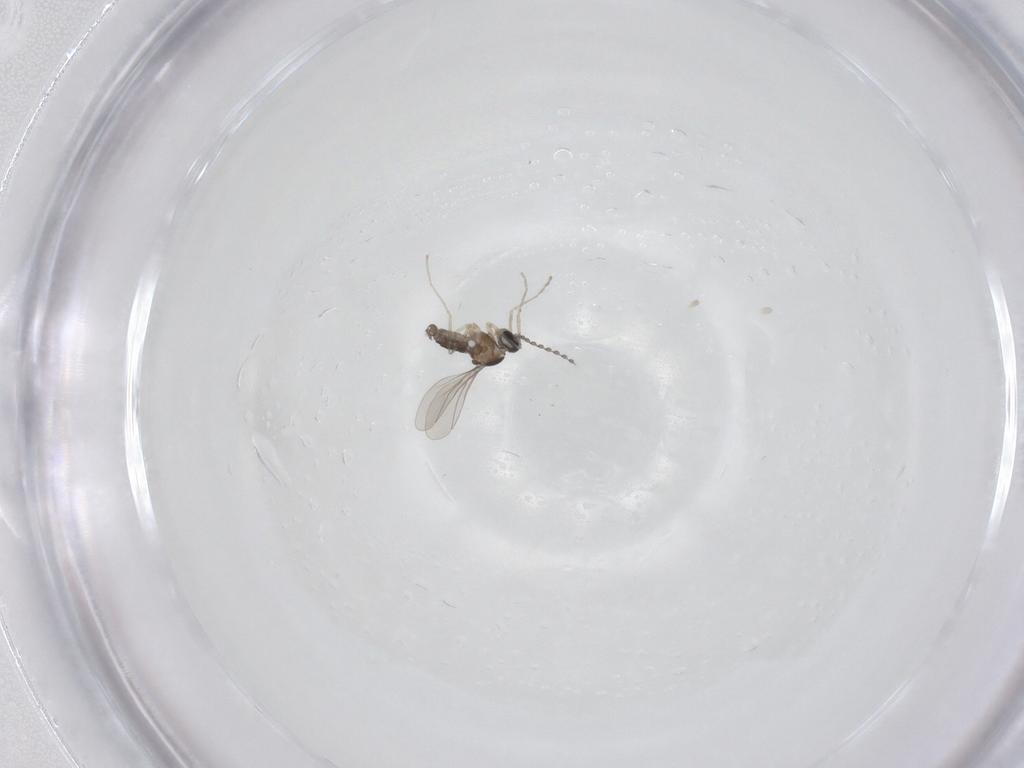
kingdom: Animalia
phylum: Arthropoda
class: Insecta
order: Diptera
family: Cecidomyiidae
